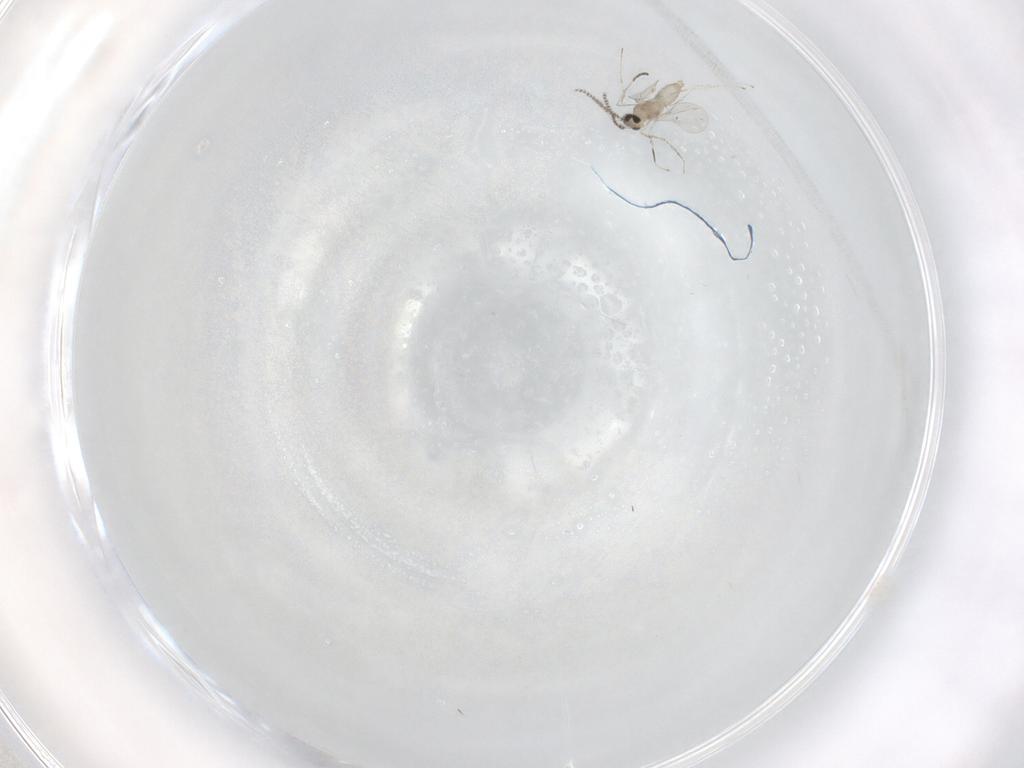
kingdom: Animalia
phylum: Arthropoda
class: Insecta
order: Diptera
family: Cecidomyiidae
